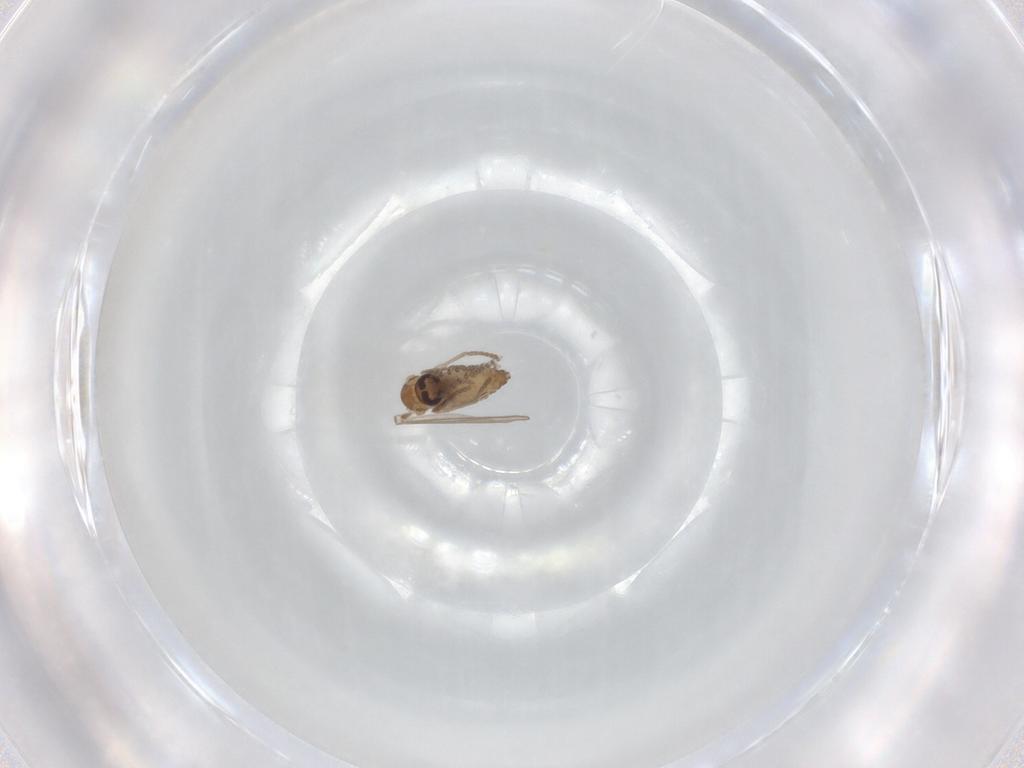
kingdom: Animalia
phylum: Arthropoda
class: Insecta
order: Diptera
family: Psychodidae
